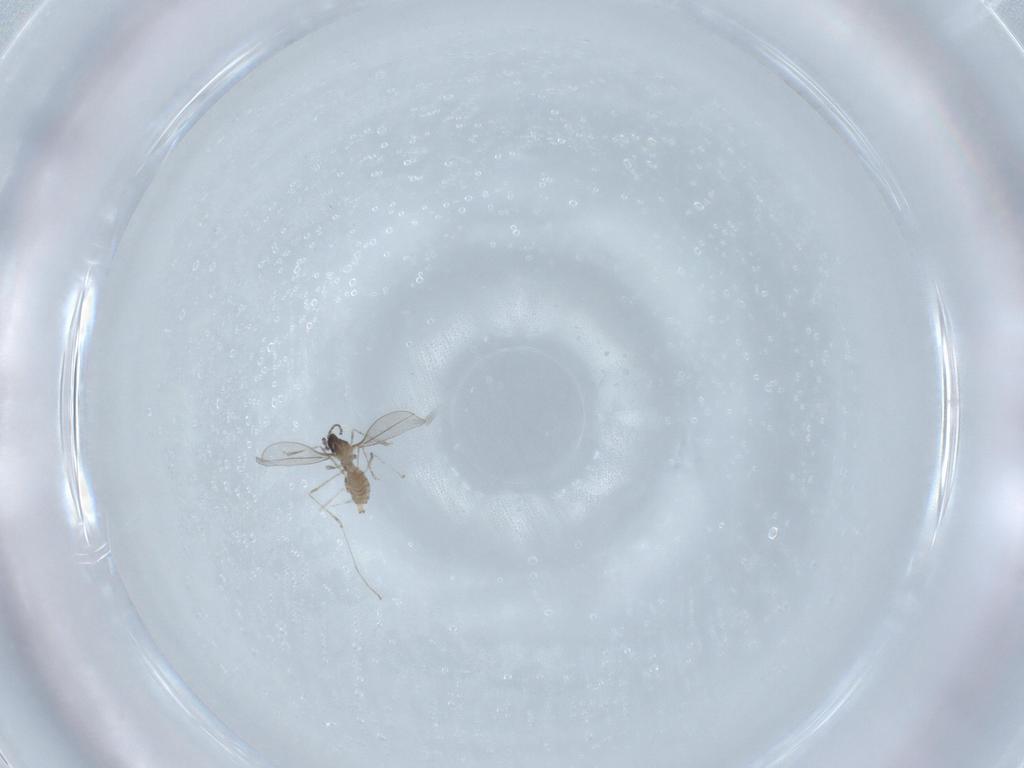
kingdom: Animalia
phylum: Arthropoda
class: Insecta
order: Diptera
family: Cecidomyiidae
